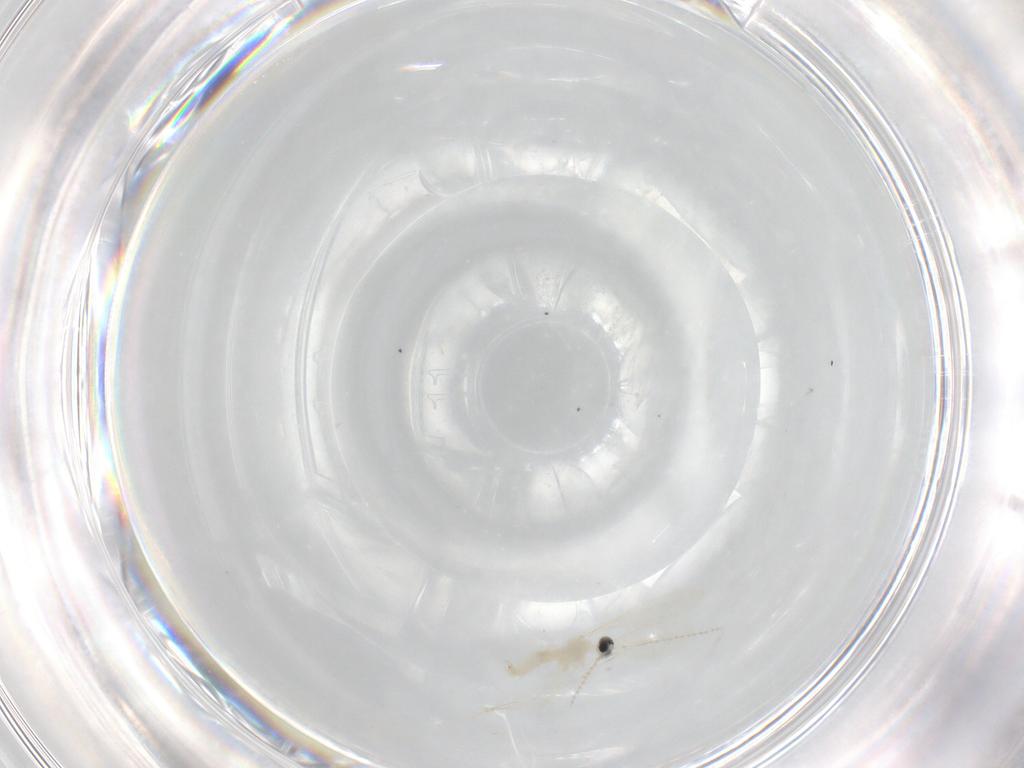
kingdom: Animalia
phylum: Arthropoda
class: Insecta
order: Diptera
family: Cecidomyiidae
